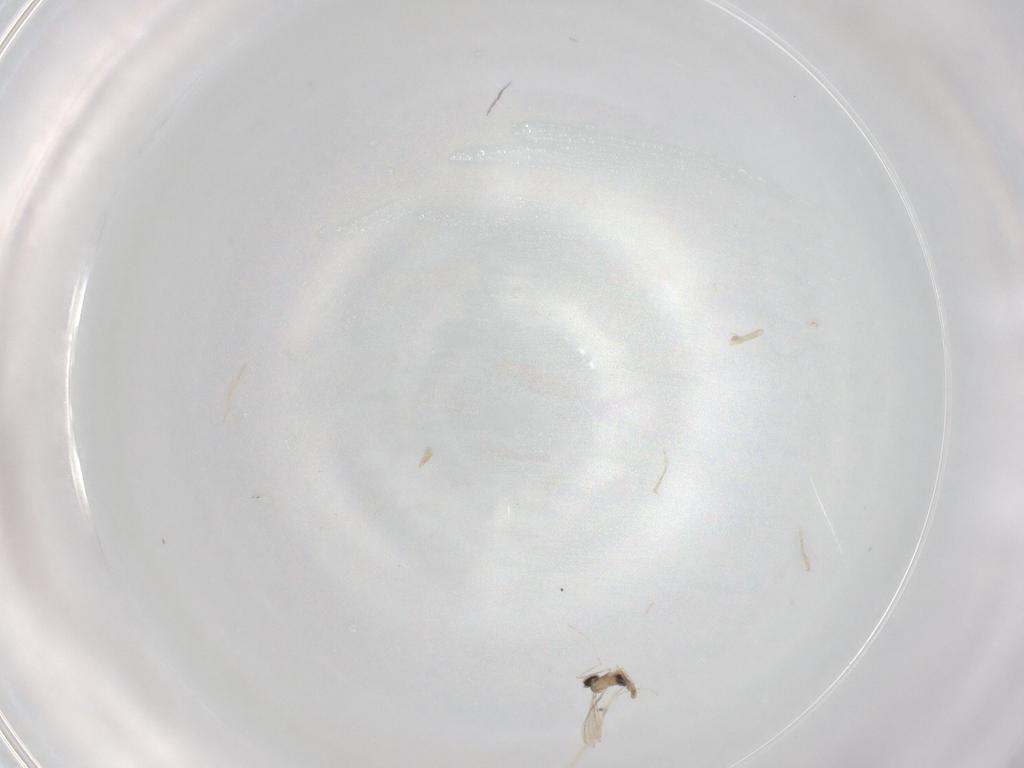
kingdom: Animalia
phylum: Arthropoda
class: Insecta
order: Diptera
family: Cecidomyiidae
